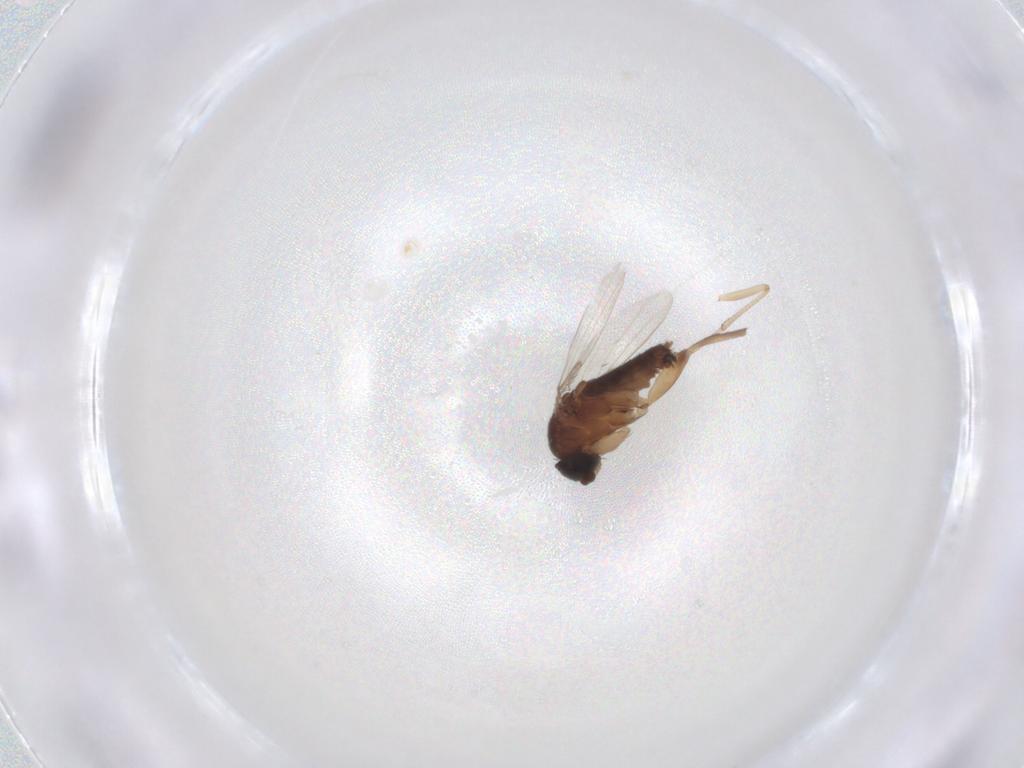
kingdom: Animalia
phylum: Arthropoda
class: Insecta
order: Diptera
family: Phoridae
